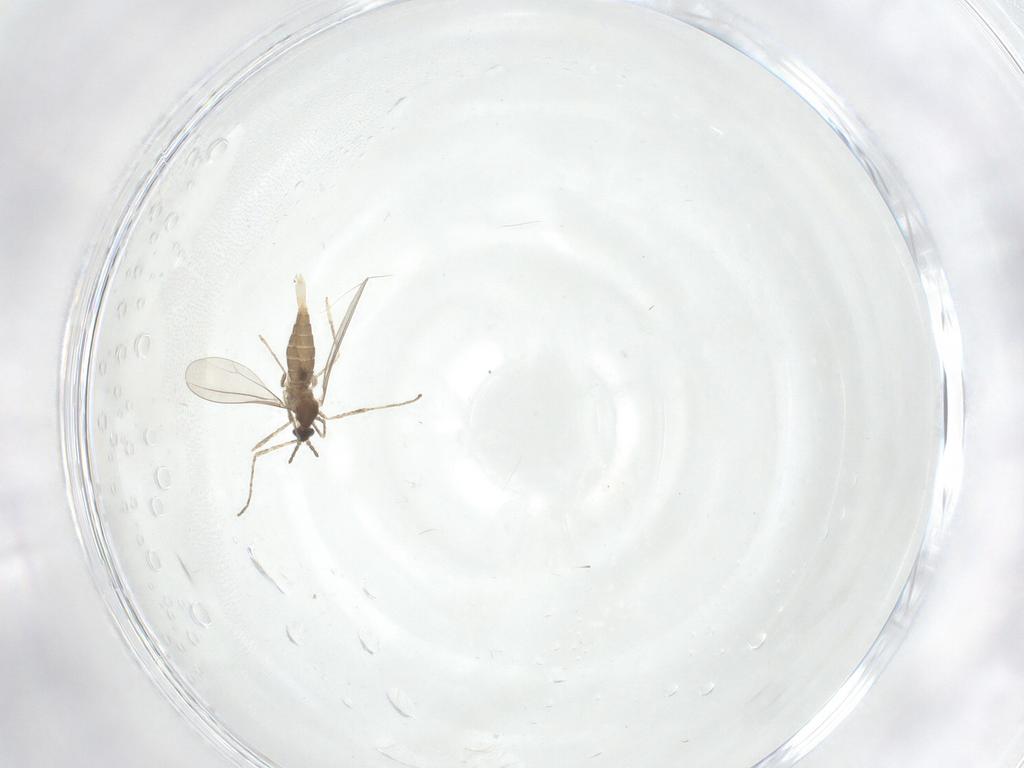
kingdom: Animalia
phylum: Arthropoda
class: Insecta
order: Diptera
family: Cecidomyiidae
